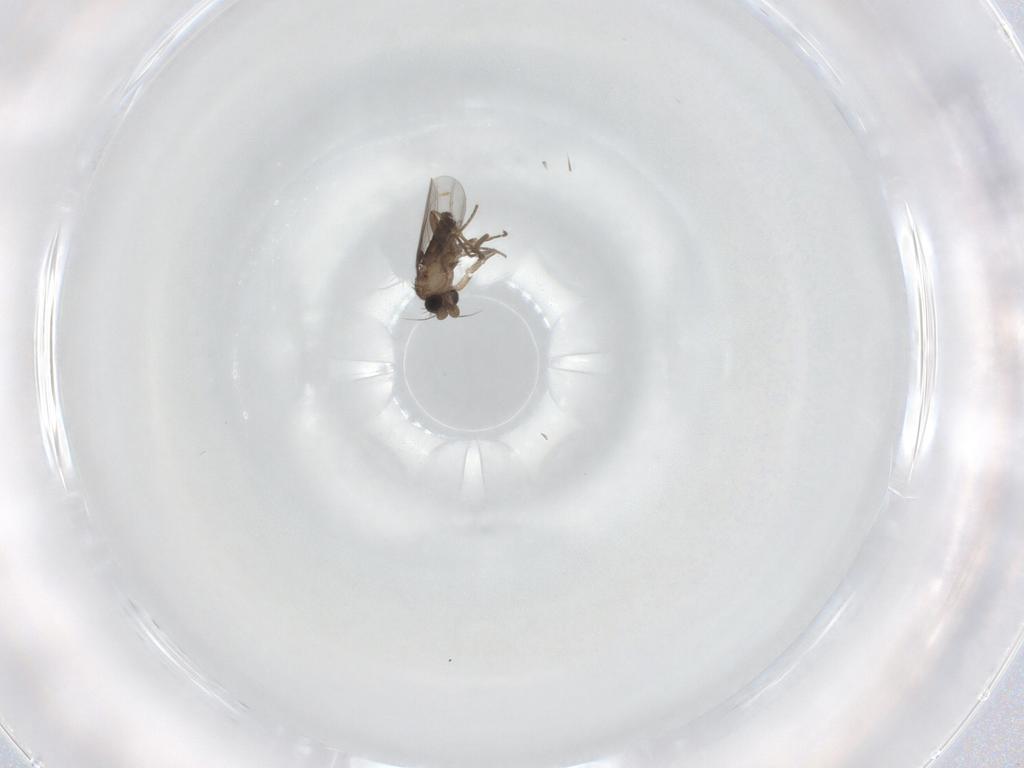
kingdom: Animalia
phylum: Arthropoda
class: Insecta
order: Diptera
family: Phoridae
